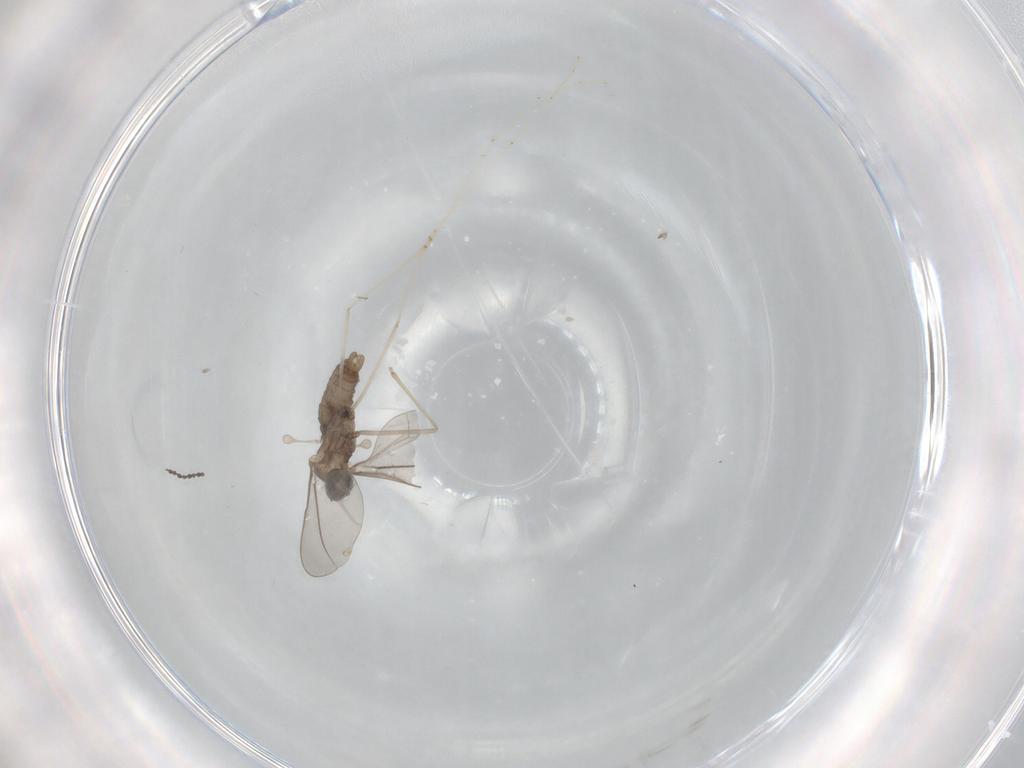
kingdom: Animalia
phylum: Arthropoda
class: Insecta
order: Diptera
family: Cecidomyiidae
